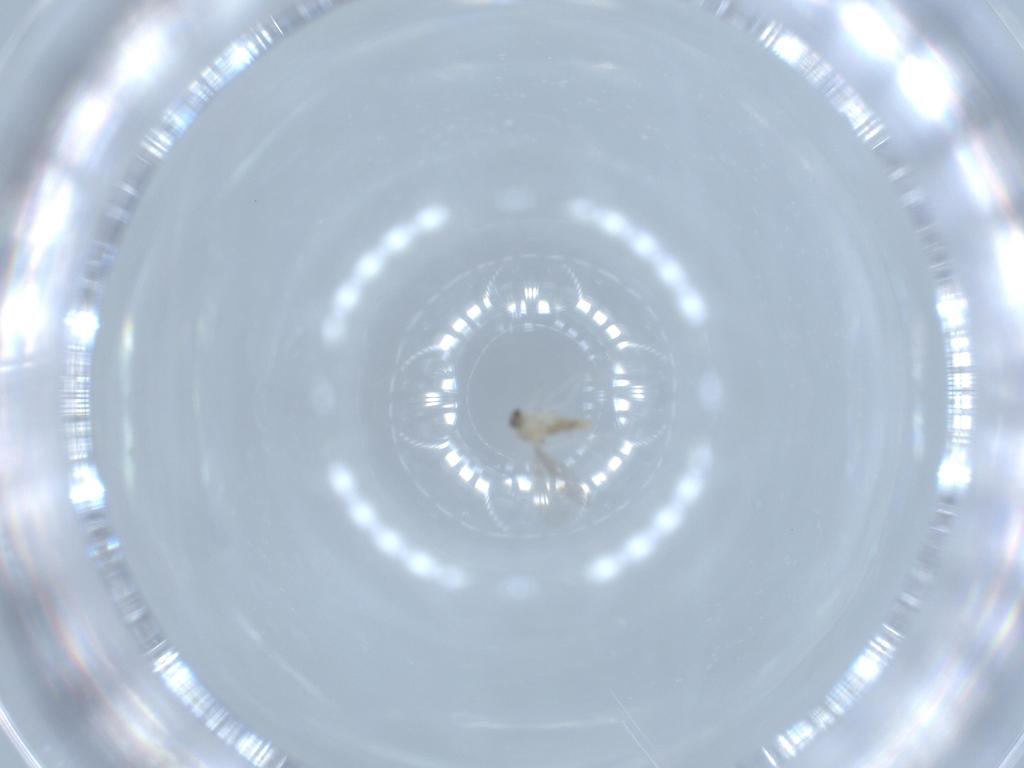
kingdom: Animalia
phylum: Arthropoda
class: Insecta
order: Diptera
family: Cecidomyiidae
